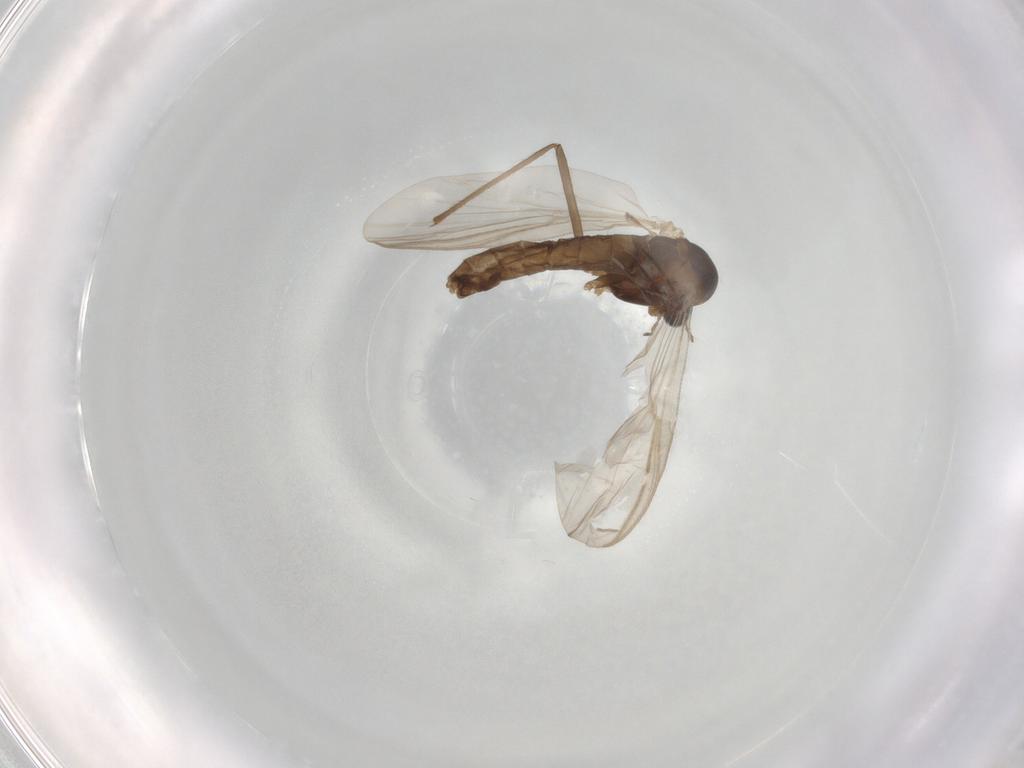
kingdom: Animalia
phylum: Arthropoda
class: Insecta
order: Diptera
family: Chironomidae
